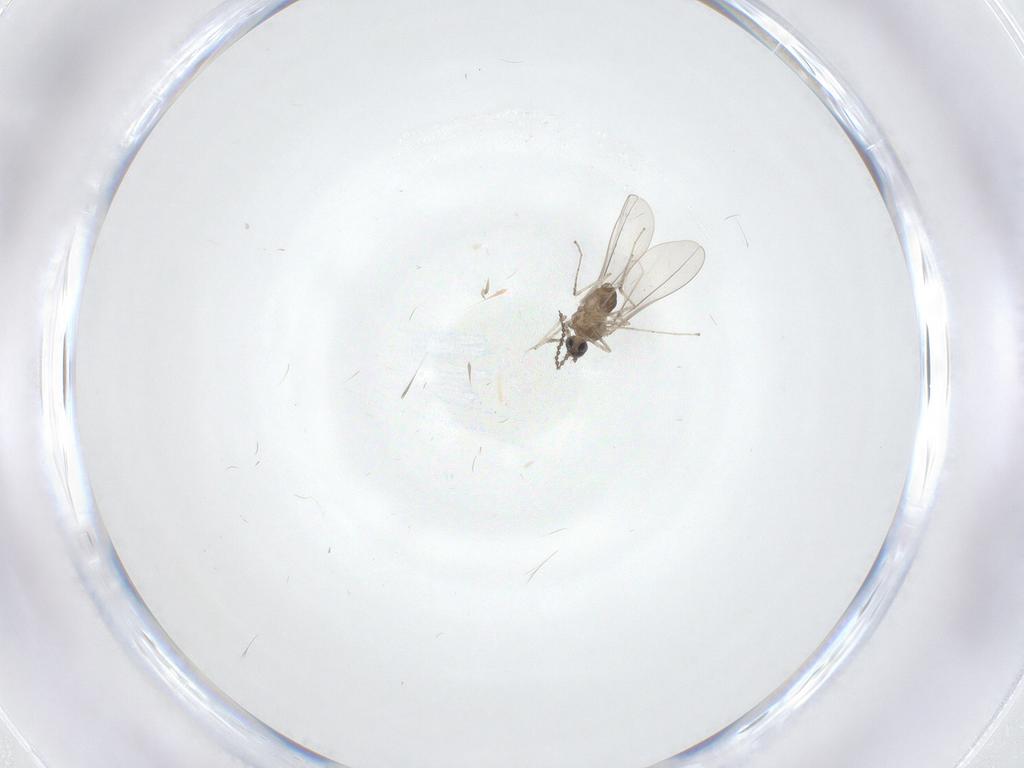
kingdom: Animalia
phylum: Arthropoda
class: Insecta
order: Diptera
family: Cecidomyiidae
